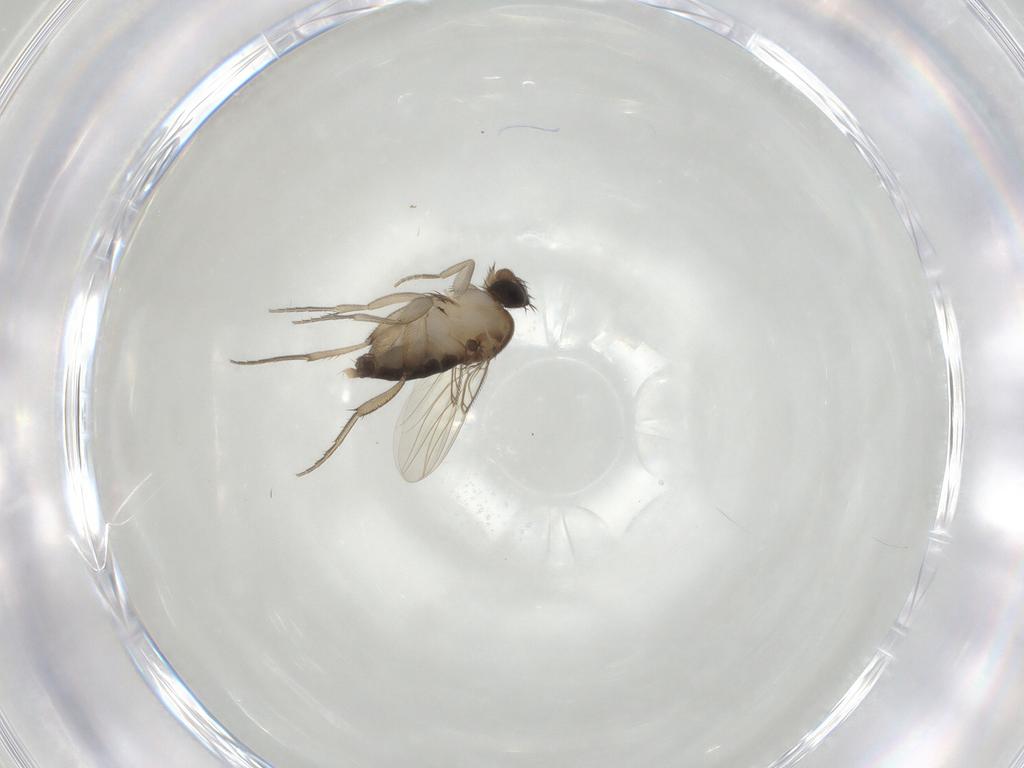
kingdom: Animalia
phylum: Arthropoda
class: Insecta
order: Diptera
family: Phoridae
